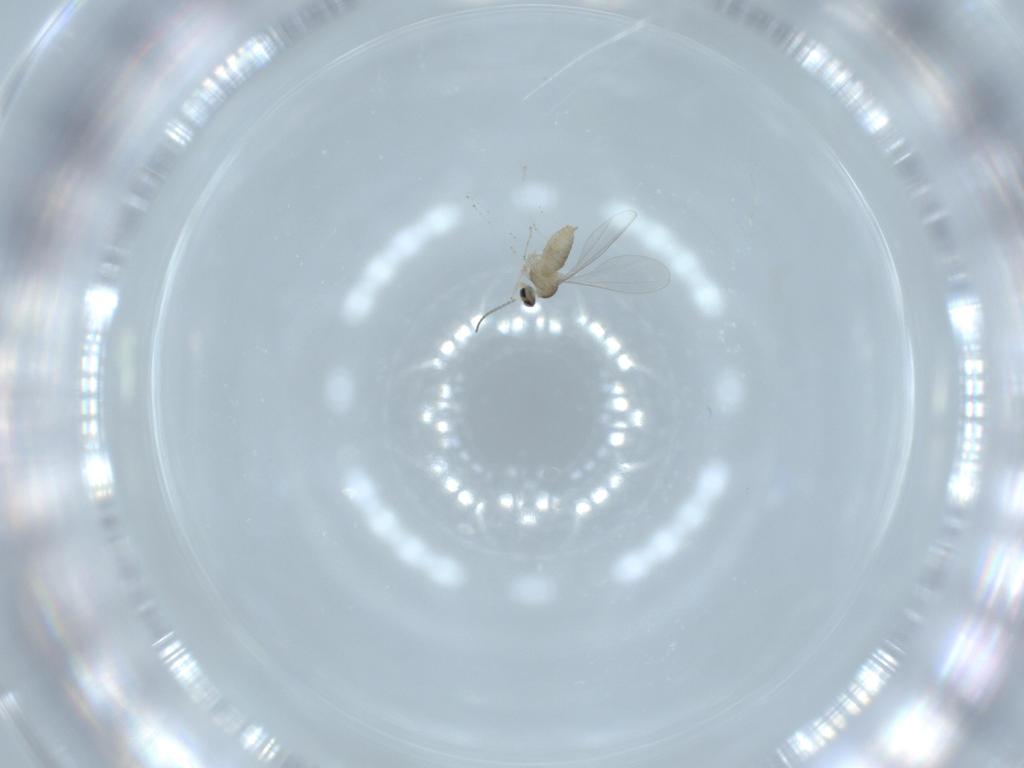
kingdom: Animalia
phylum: Arthropoda
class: Insecta
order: Diptera
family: Cecidomyiidae
